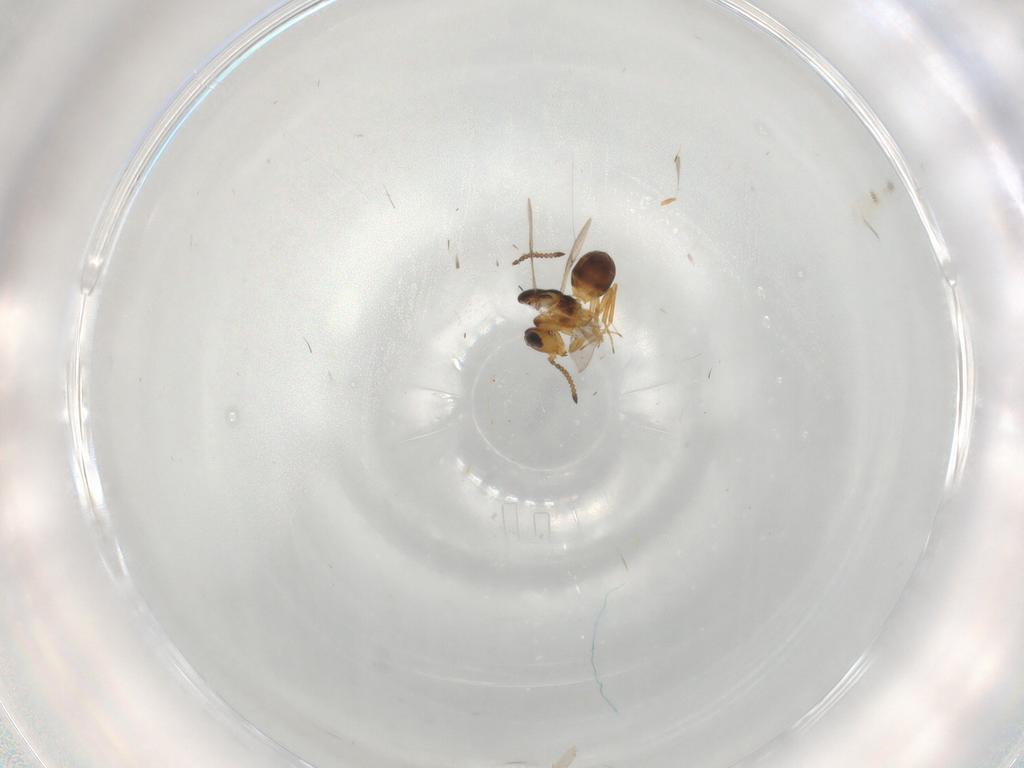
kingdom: Animalia
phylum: Arthropoda
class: Insecta
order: Hymenoptera
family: Scelionidae
